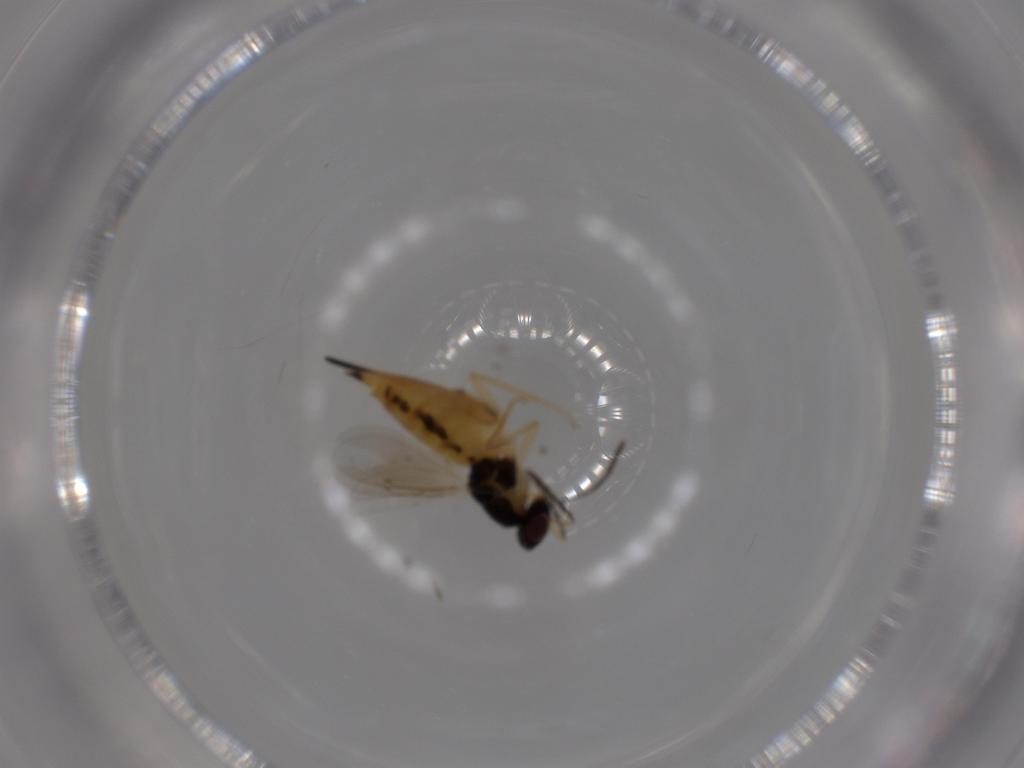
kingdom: Animalia
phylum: Arthropoda
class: Insecta
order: Hymenoptera
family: Eulophidae
